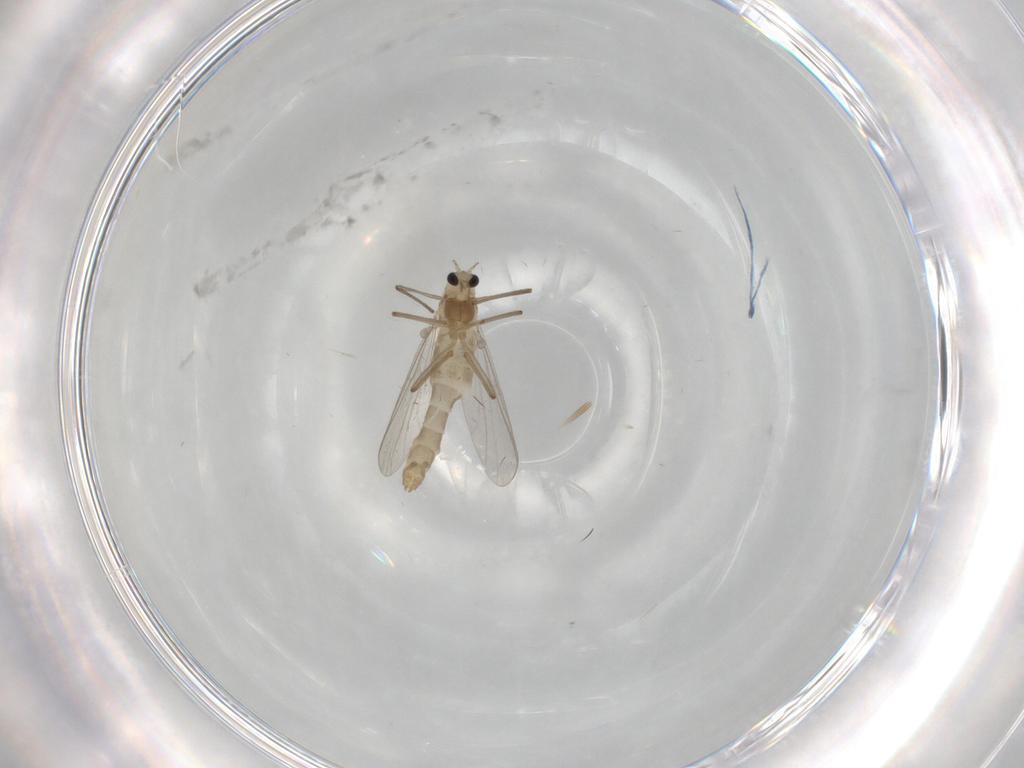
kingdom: Animalia
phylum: Arthropoda
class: Insecta
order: Diptera
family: Chironomidae
